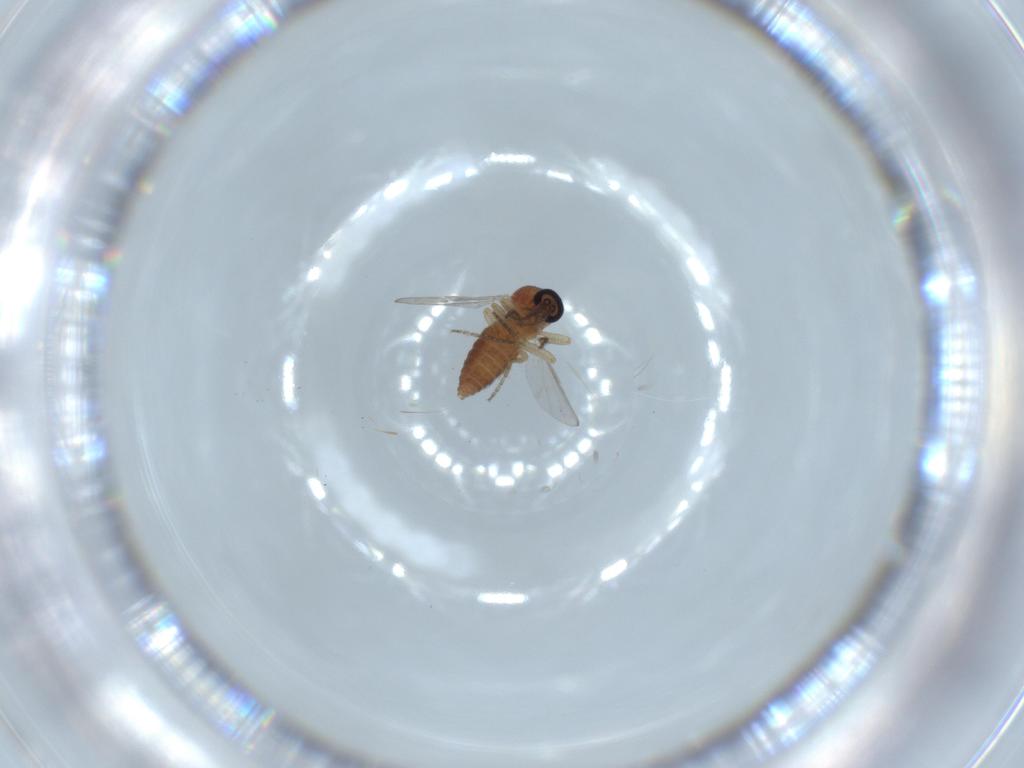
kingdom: Animalia
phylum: Arthropoda
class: Insecta
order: Diptera
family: Ceratopogonidae
